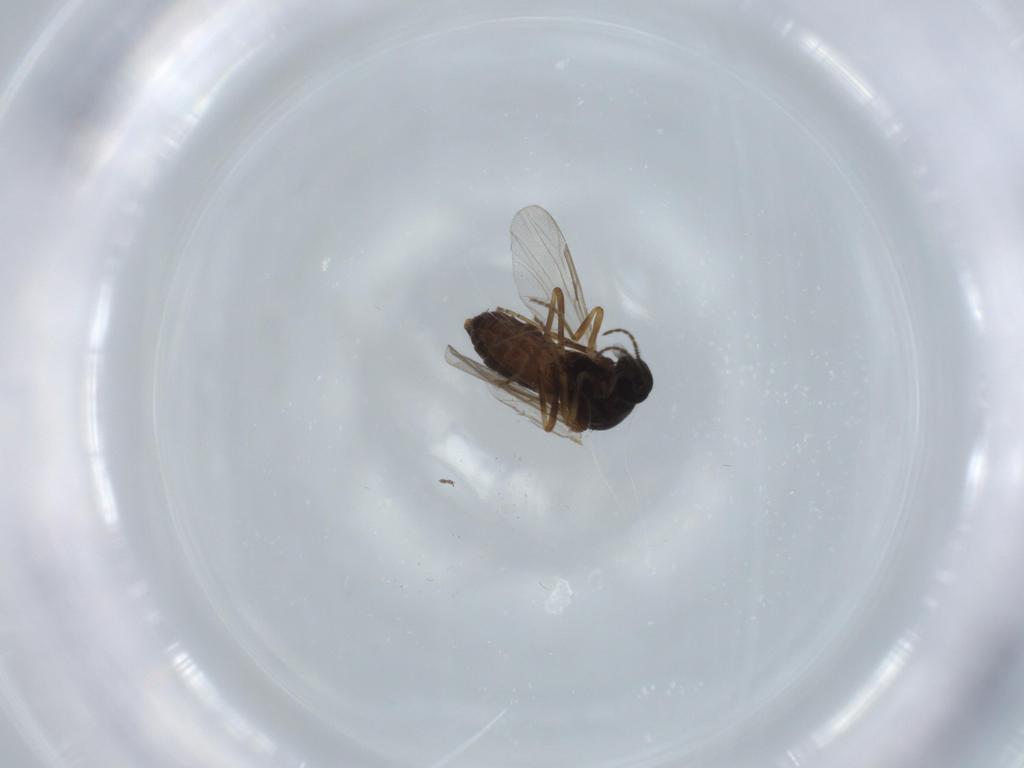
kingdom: Animalia
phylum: Arthropoda
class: Insecta
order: Diptera
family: Ceratopogonidae
